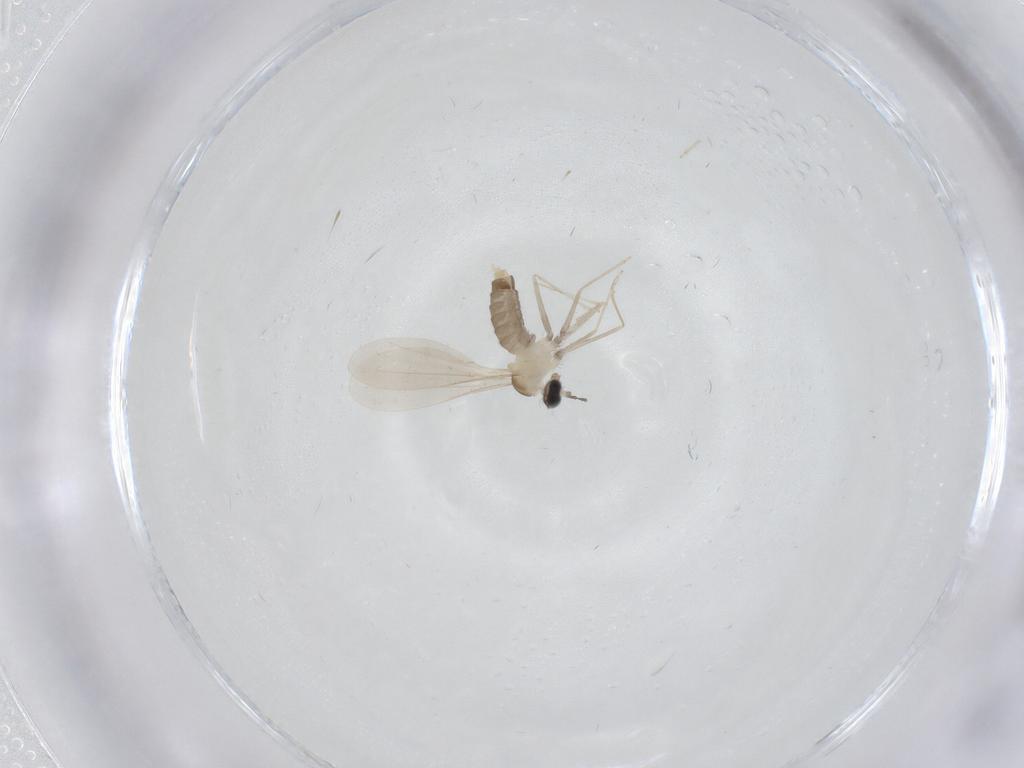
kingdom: Animalia
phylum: Arthropoda
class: Insecta
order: Diptera
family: Cecidomyiidae
